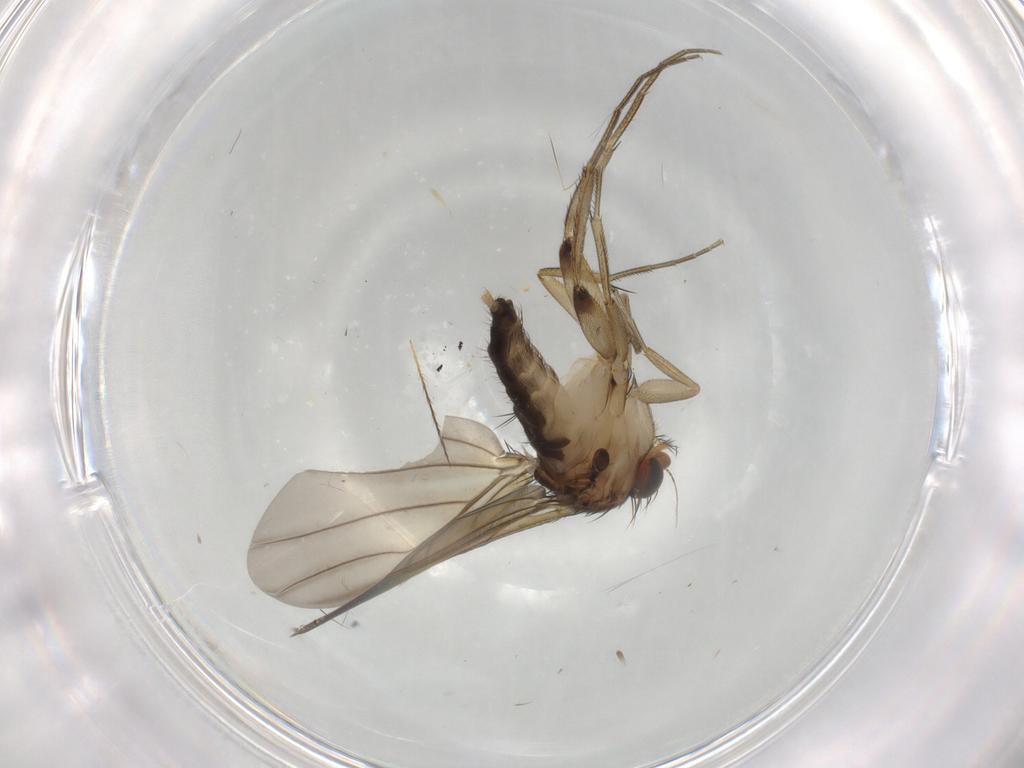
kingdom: Animalia
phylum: Arthropoda
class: Insecta
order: Diptera
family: Phoridae
